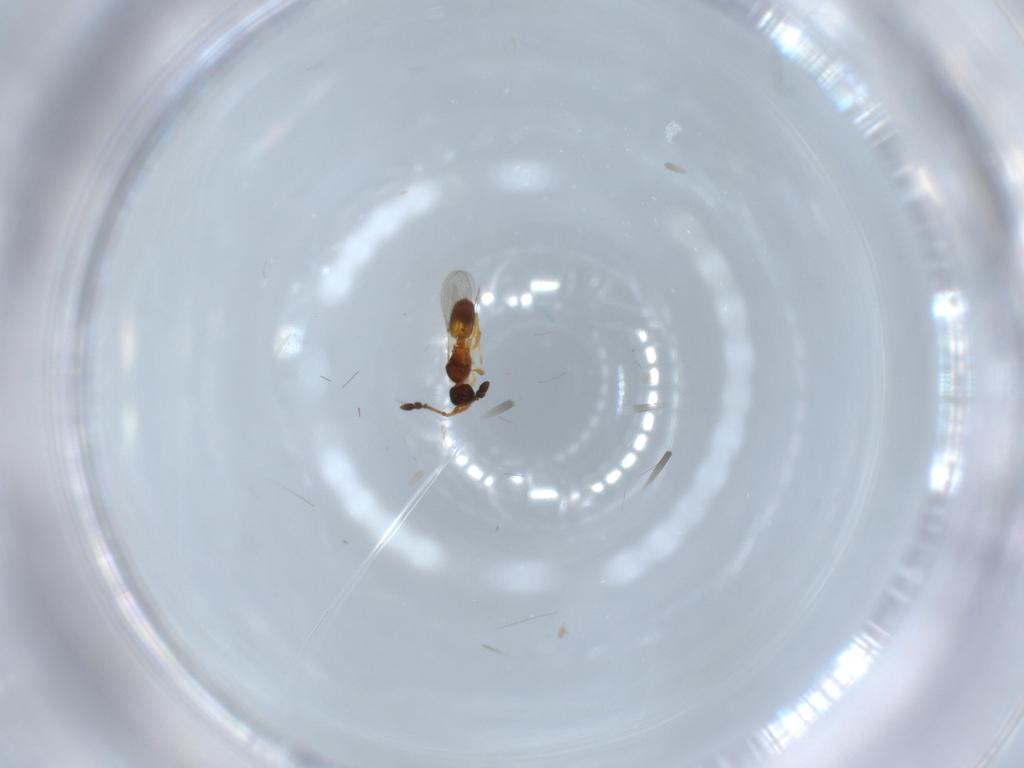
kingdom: Animalia
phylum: Arthropoda
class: Insecta
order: Hymenoptera
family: Diapriidae
